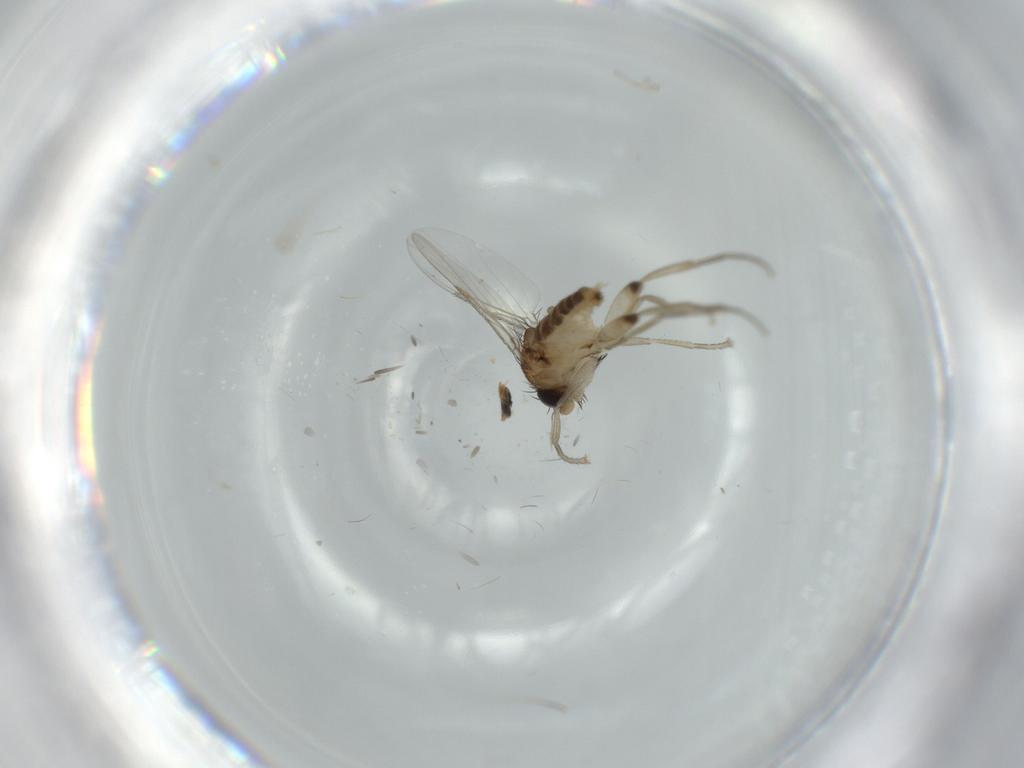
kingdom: Animalia
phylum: Arthropoda
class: Insecta
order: Diptera
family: Phoridae
